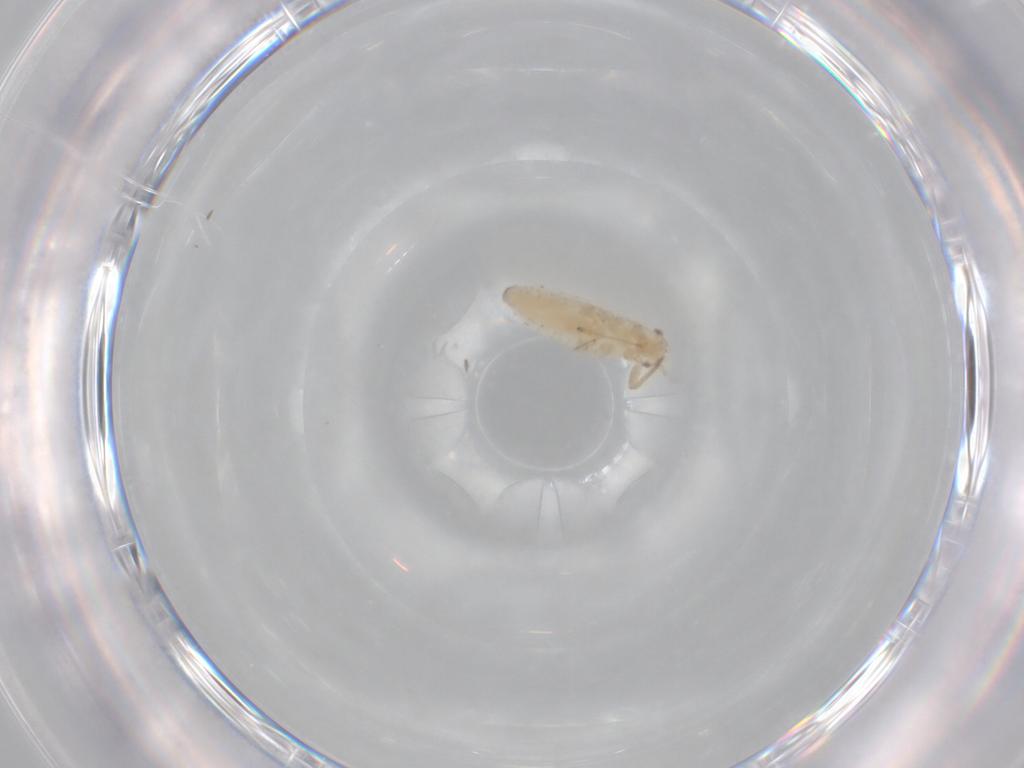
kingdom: Animalia
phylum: Arthropoda
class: Insecta
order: Hemiptera
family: Aphididae
